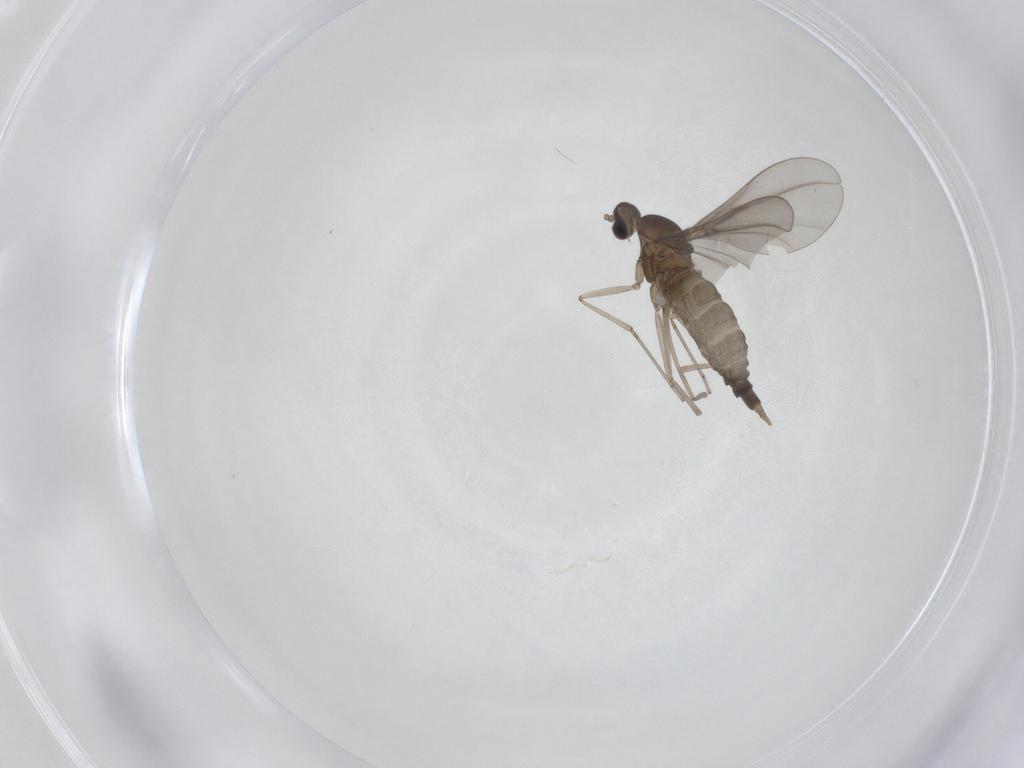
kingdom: Animalia
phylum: Arthropoda
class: Insecta
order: Diptera
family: Cecidomyiidae
